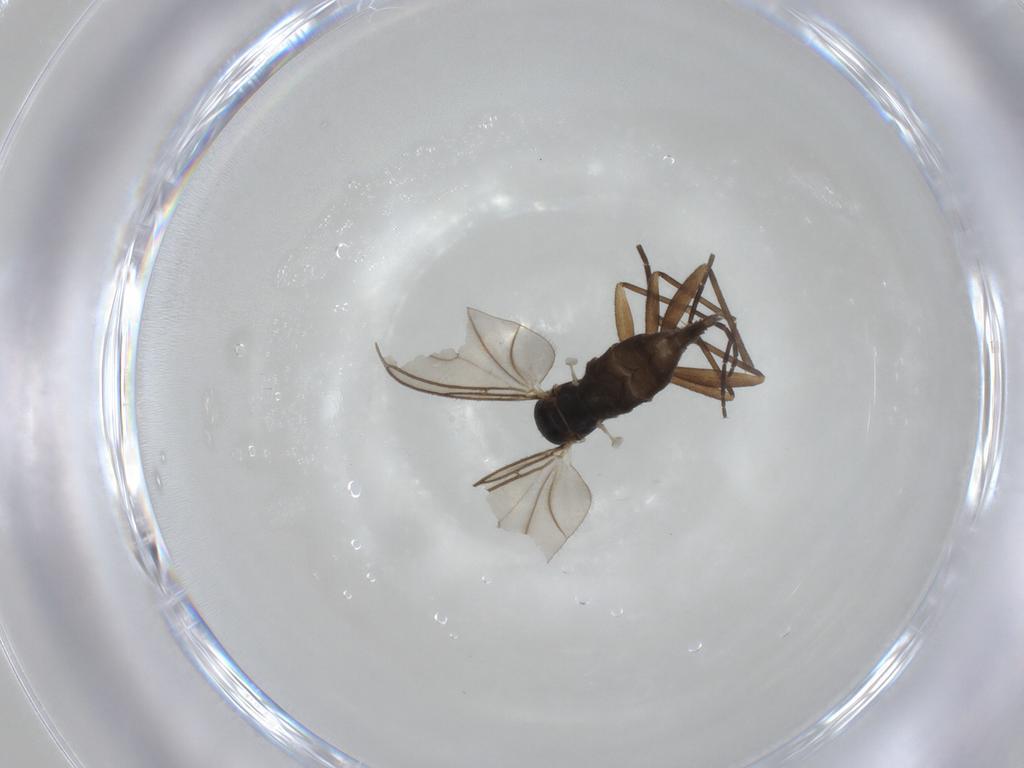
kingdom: Animalia
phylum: Arthropoda
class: Insecta
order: Diptera
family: Sciaridae
